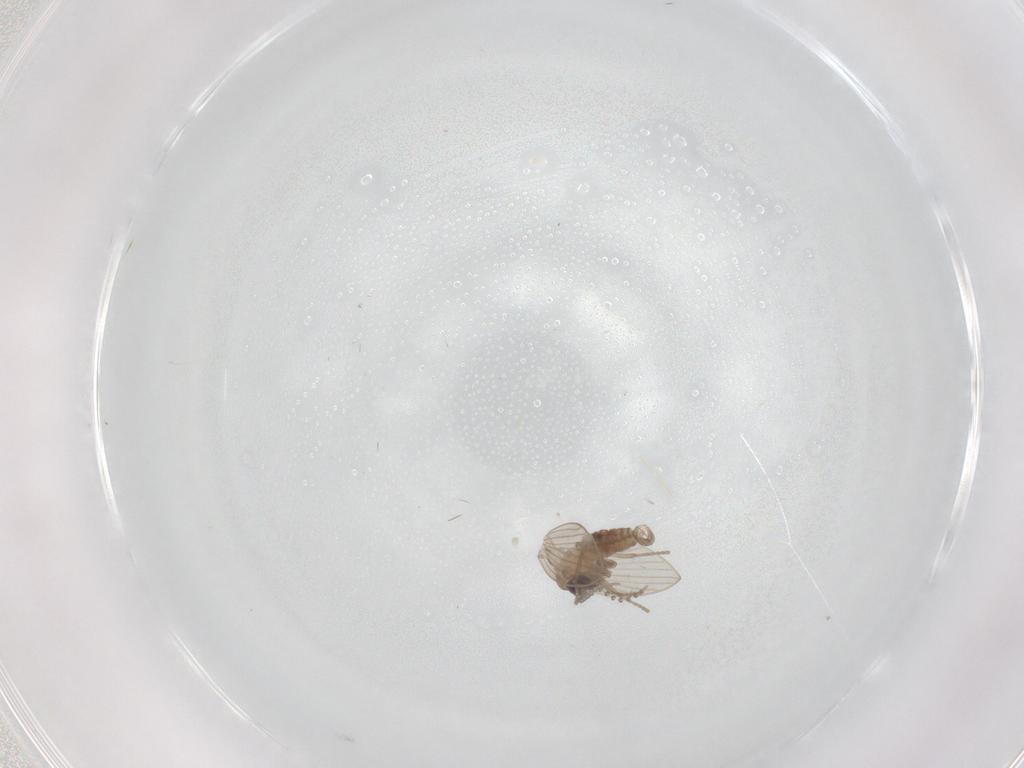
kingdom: Animalia
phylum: Arthropoda
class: Insecta
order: Diptera
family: Psychodidae
